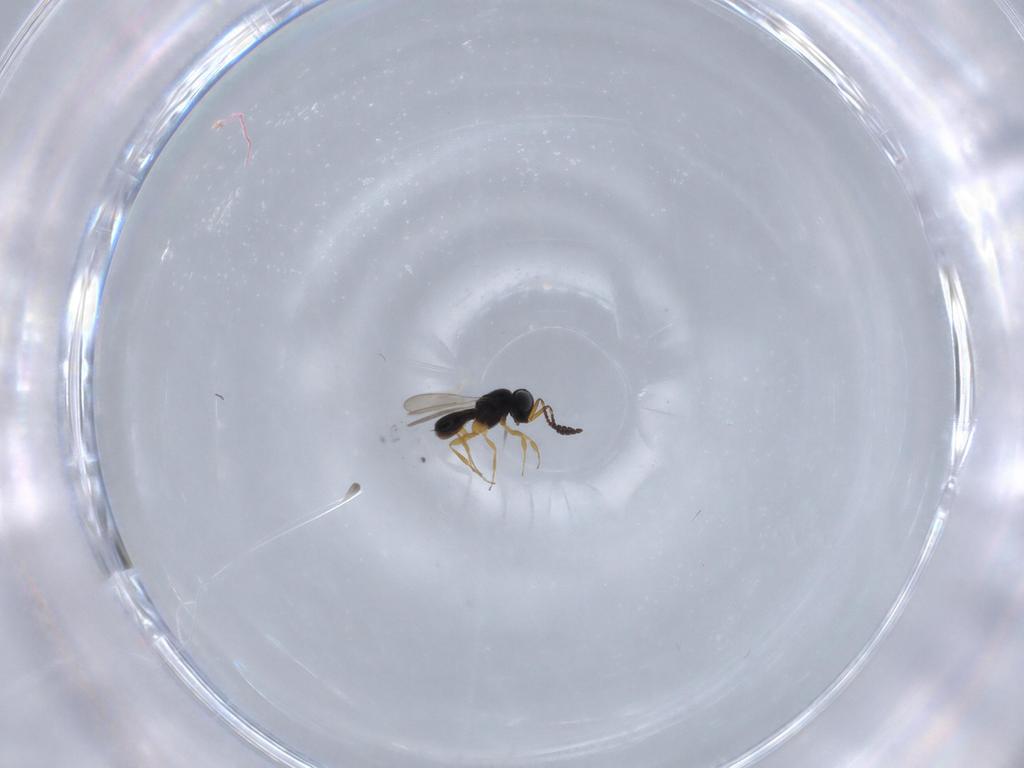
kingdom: Animalia
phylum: Arthropoda
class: Insecta
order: Hymenoptera
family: Scelionidae
